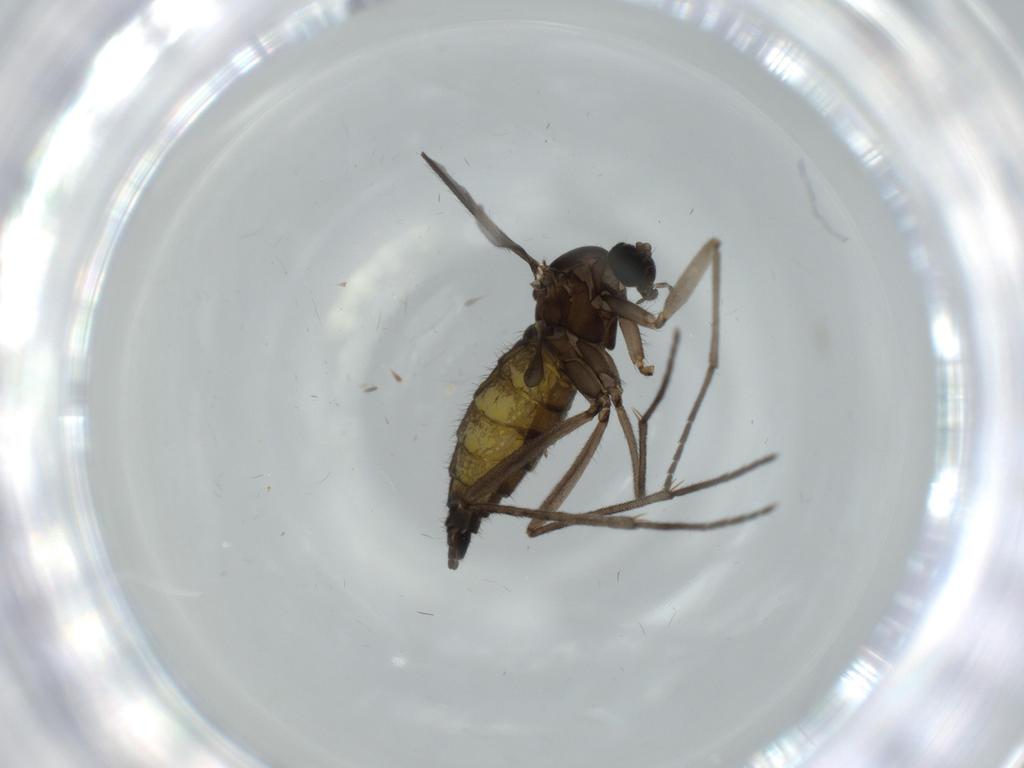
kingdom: Animalia
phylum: Arthropoda
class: Insecta
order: Diptera
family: Sciaridae
